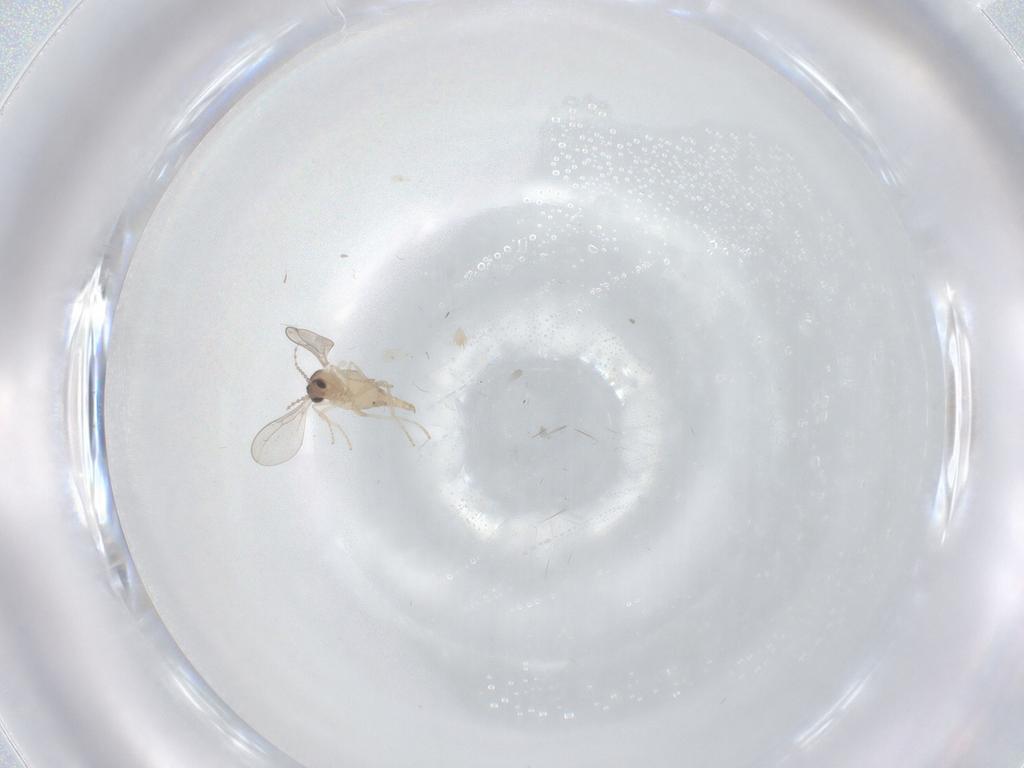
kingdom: Animalia
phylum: Arthropoda
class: Insecta
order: Diptera
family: Cecidomyiidae
